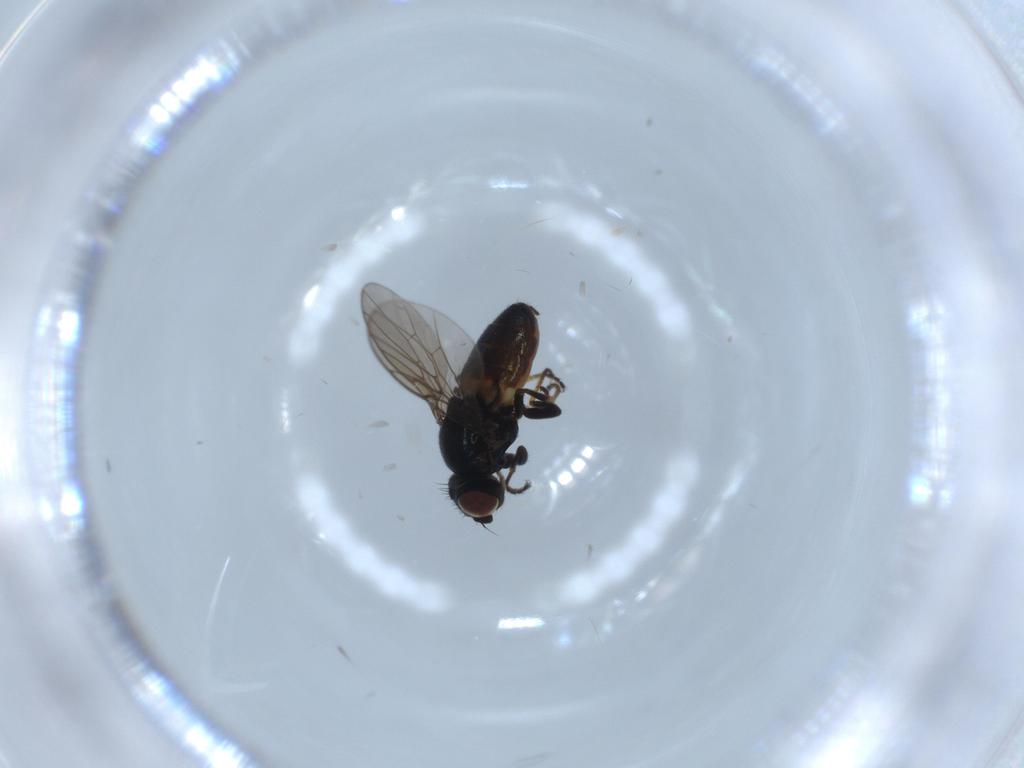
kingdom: Animalia
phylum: Arthropoda
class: Insecta
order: Diptera
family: Chloropidae
